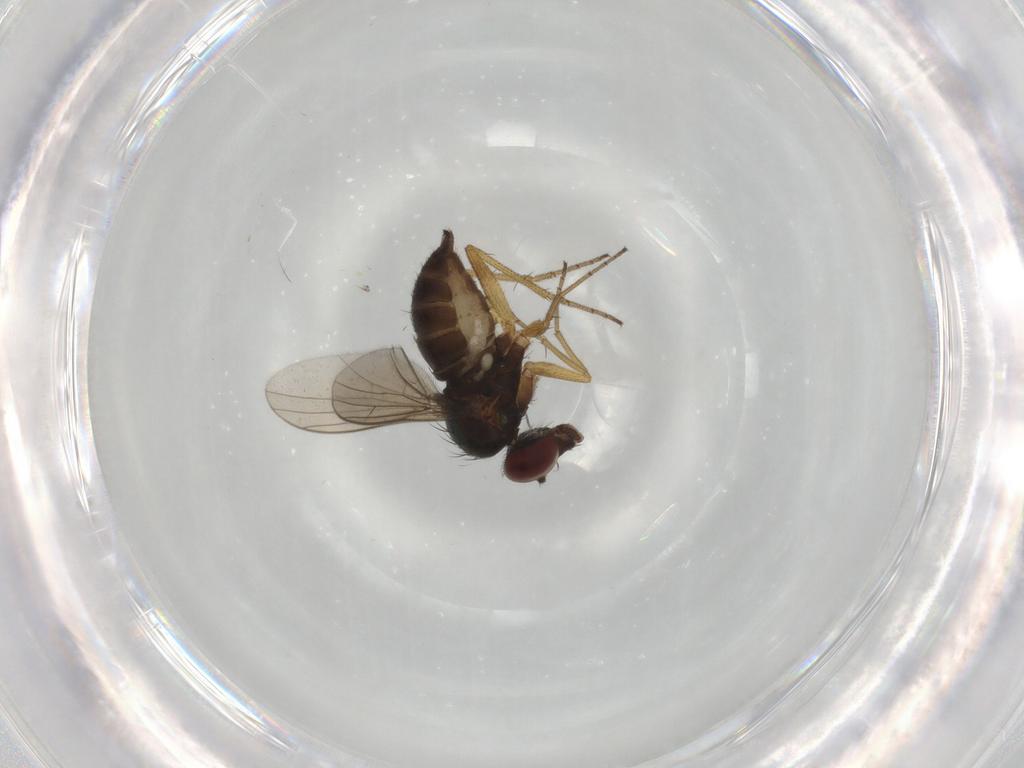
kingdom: Animalia
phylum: Arthropoda
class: Insecta
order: Diptera
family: Dolichopodidae
